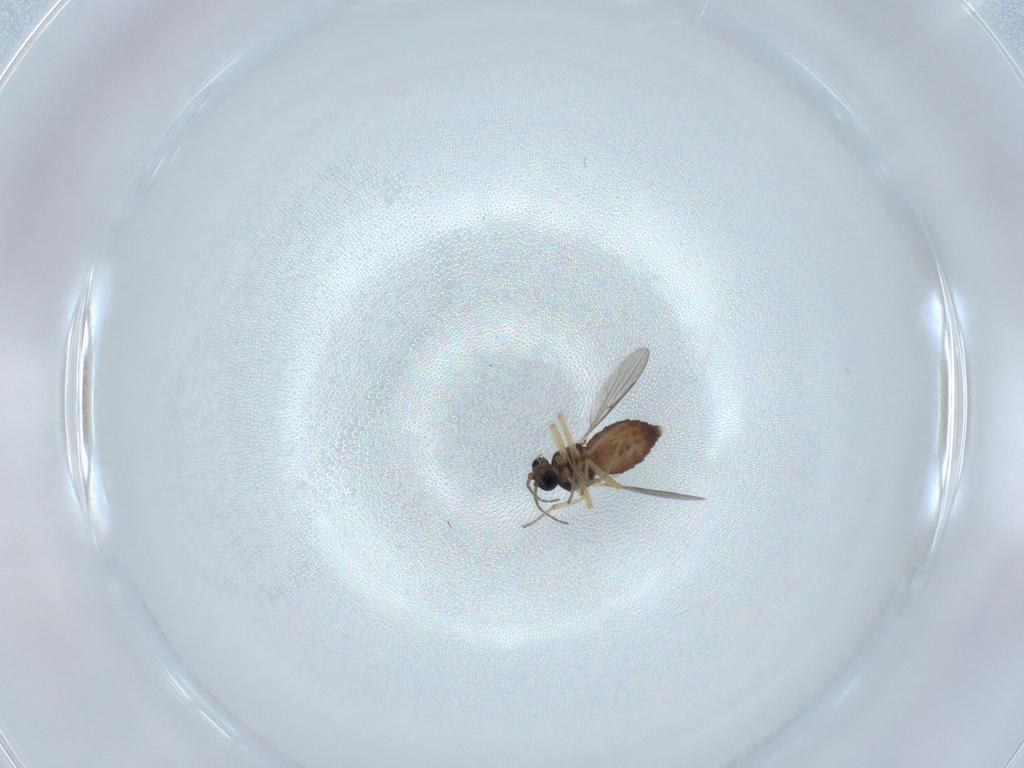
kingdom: Animalia
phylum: Arthropoda
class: Insecta
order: Diptera
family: Ceratopogonidae
